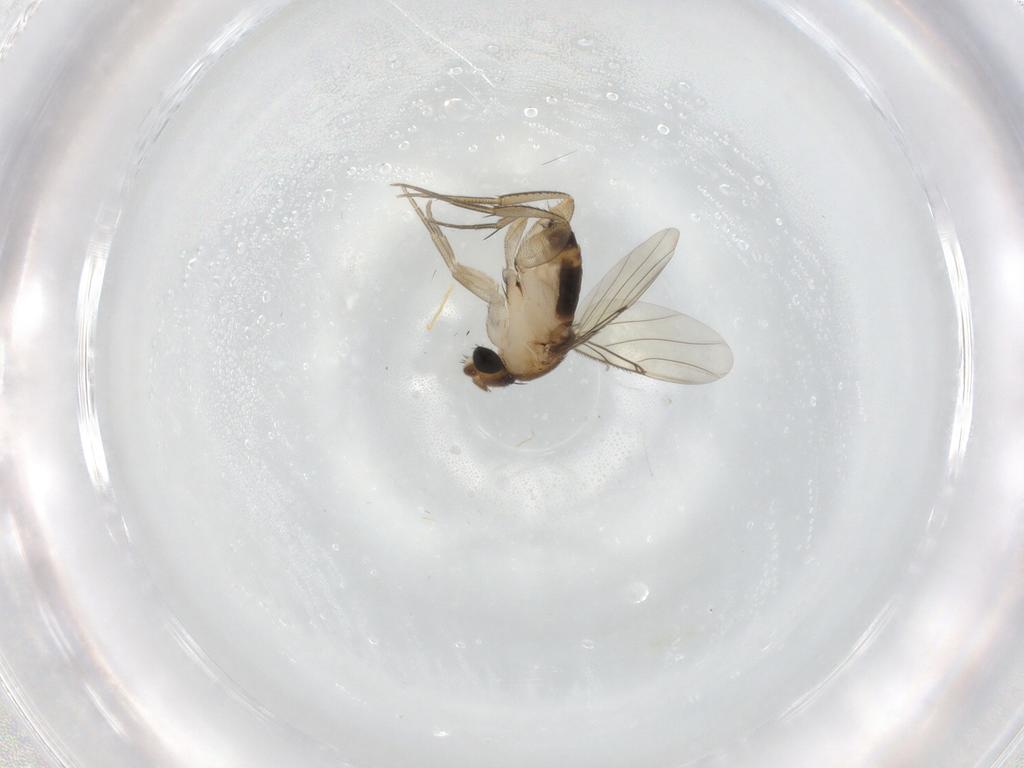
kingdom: Animalia
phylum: Arthropoda
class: Insecta
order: Diptera
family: Phoridae
